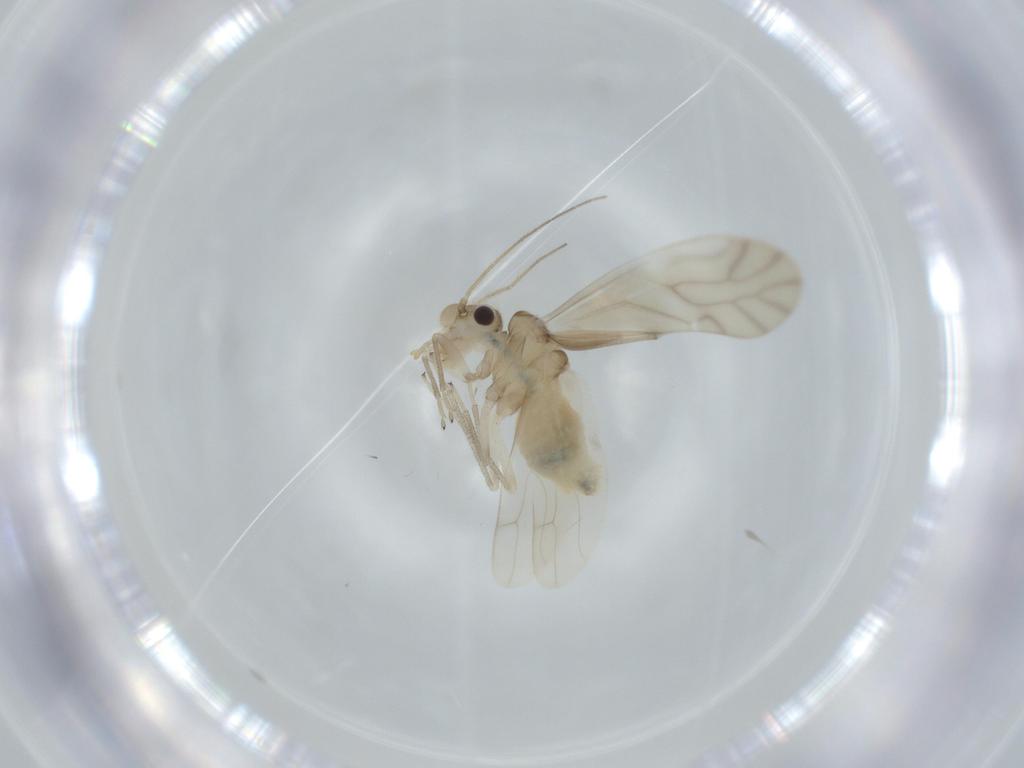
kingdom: Animalia
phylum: Arthropoda
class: Insecta
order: Psocodea
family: Caeciliusidae
